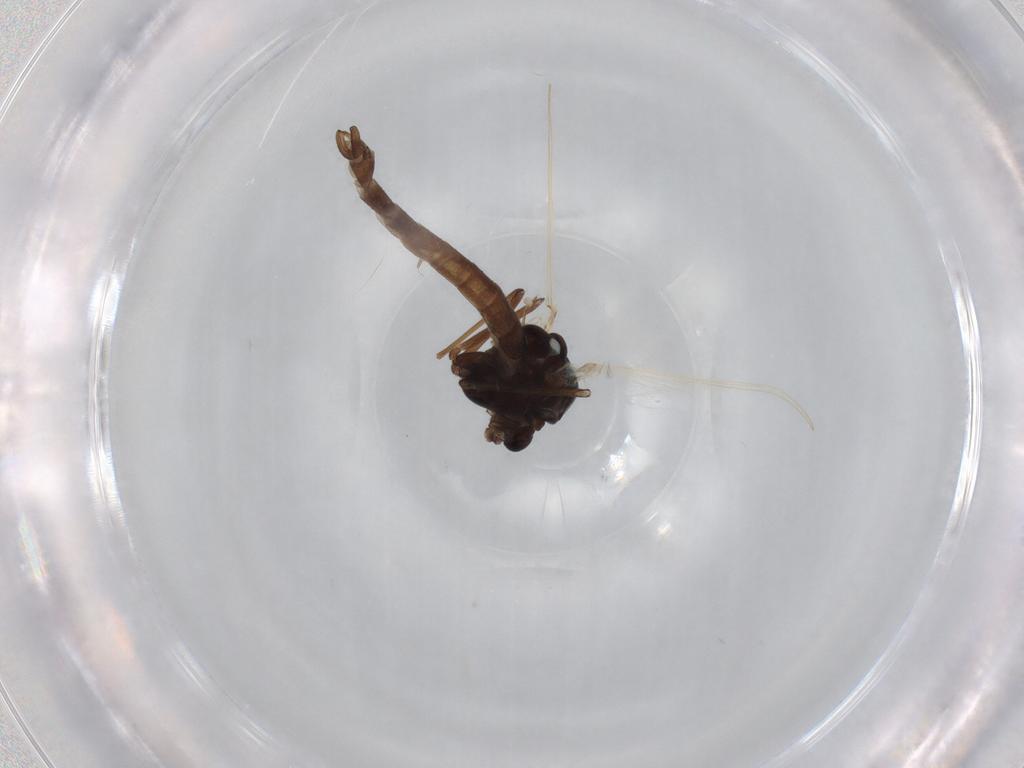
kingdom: Animalia
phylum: Arthropoda
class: Insecta
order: Diptera
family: Chironomidae
